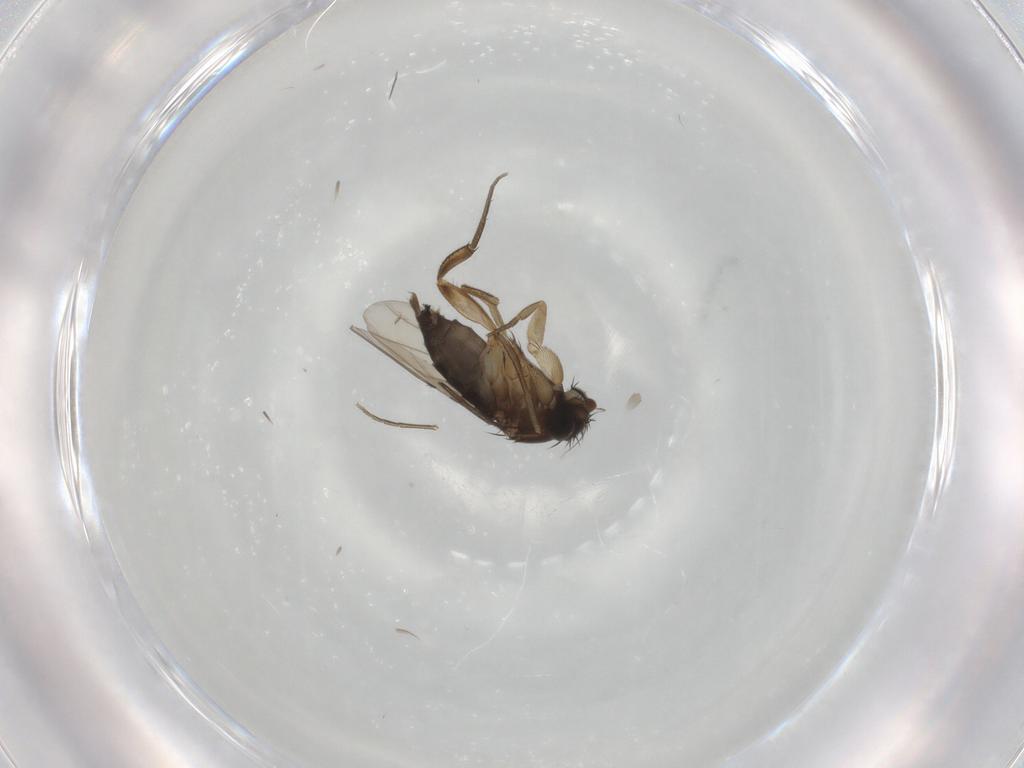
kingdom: Animalia
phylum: Arthropoda
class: Insecta
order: Diptera
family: Phoridae
